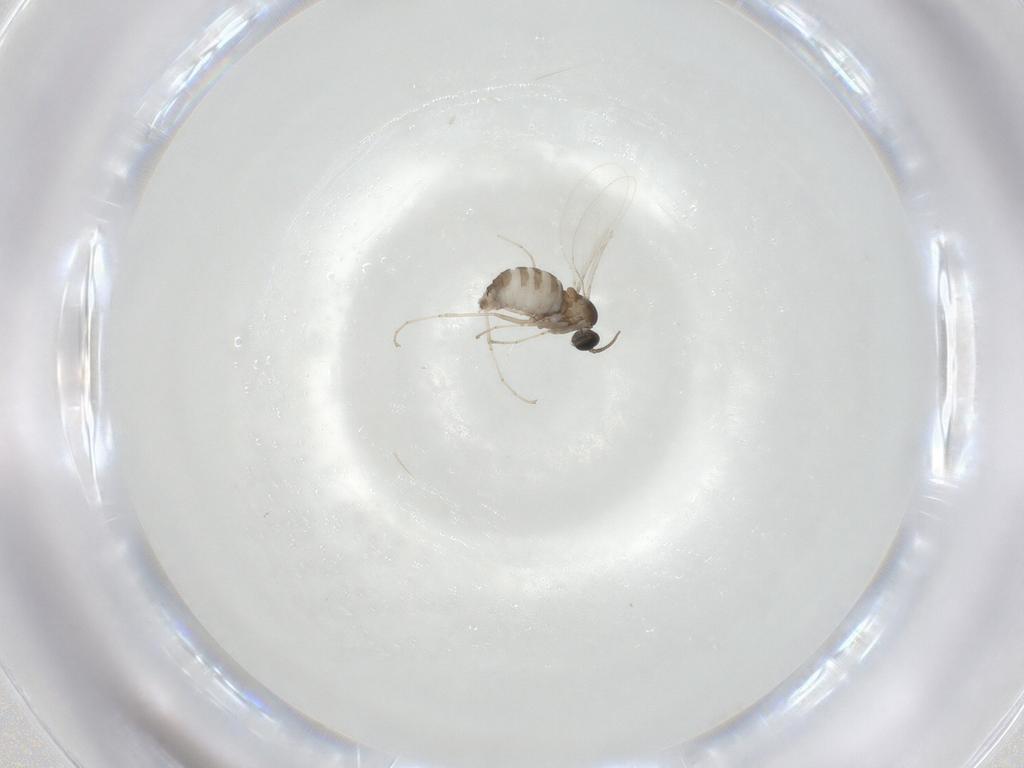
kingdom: Animalia
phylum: Arthropoda
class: Insecta
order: Diptera
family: Cecidomyiidae
